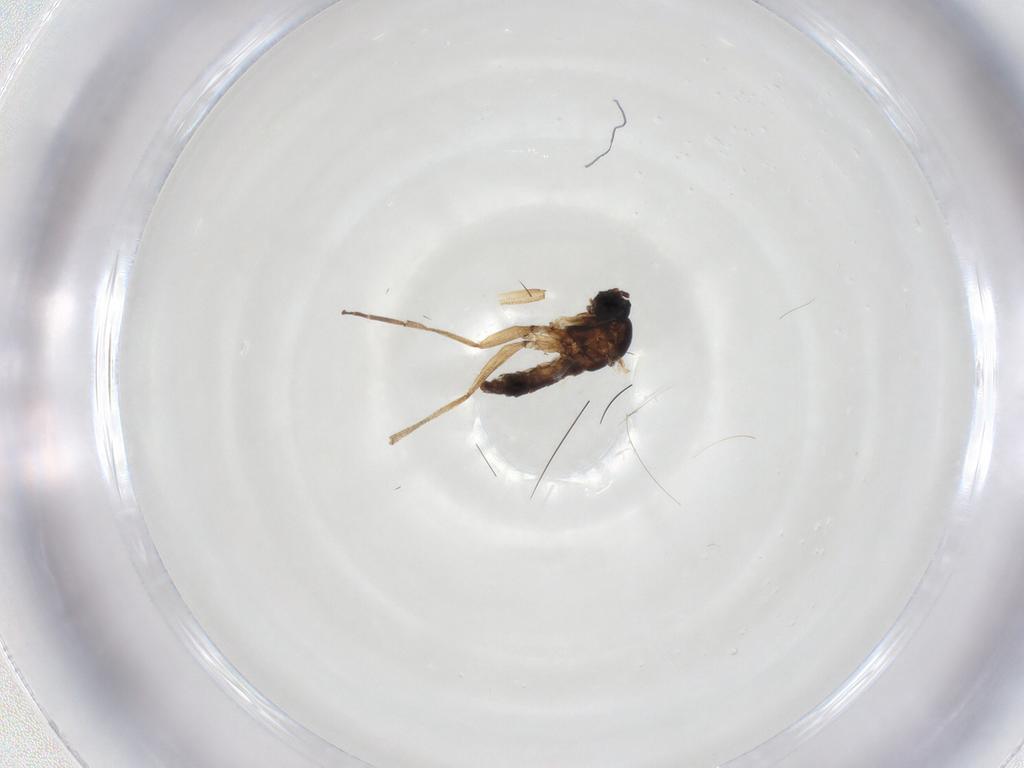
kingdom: Animalia
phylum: Arthropoda
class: Insecta
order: Diptera
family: Sciaridae
